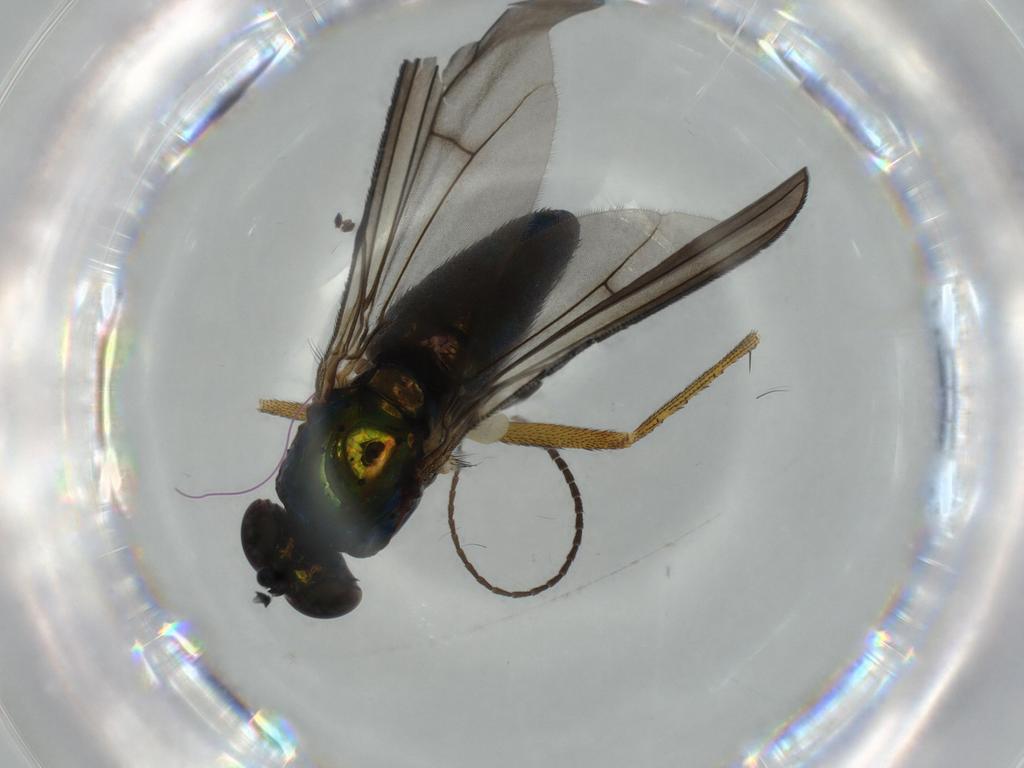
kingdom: Animalia
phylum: Arthropoda
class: Insecta
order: Diptera
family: Dolichopodidae
